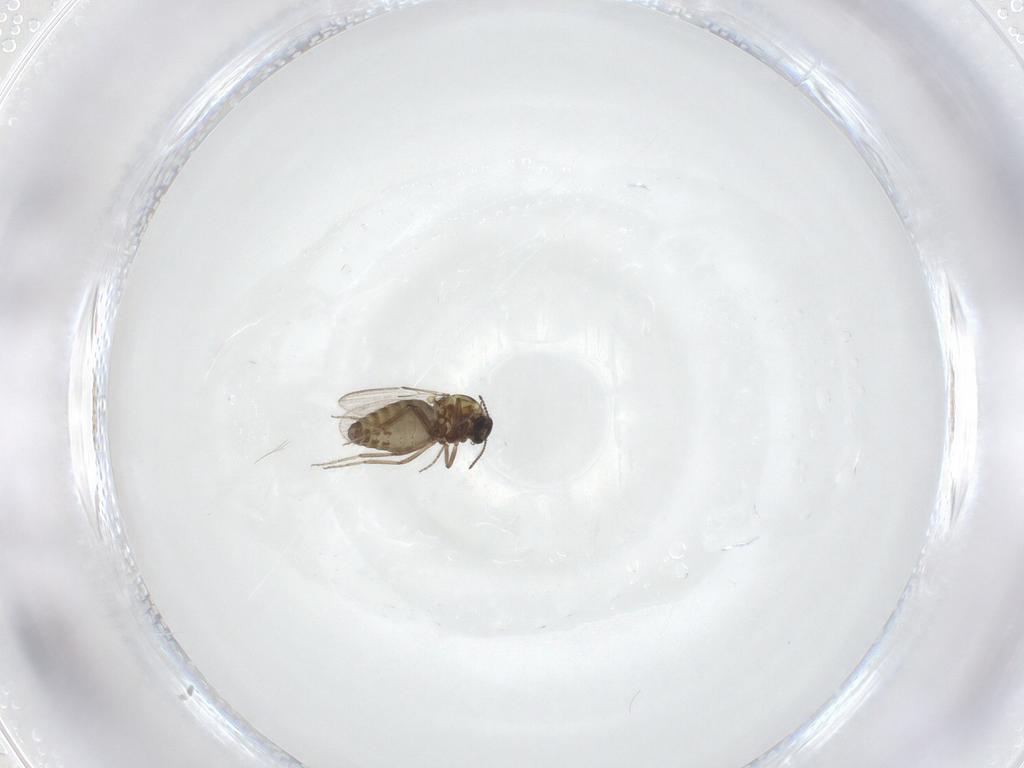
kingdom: Animalia
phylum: Arthropoda
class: Insecta
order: Diptera
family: Ceratopogonidae
